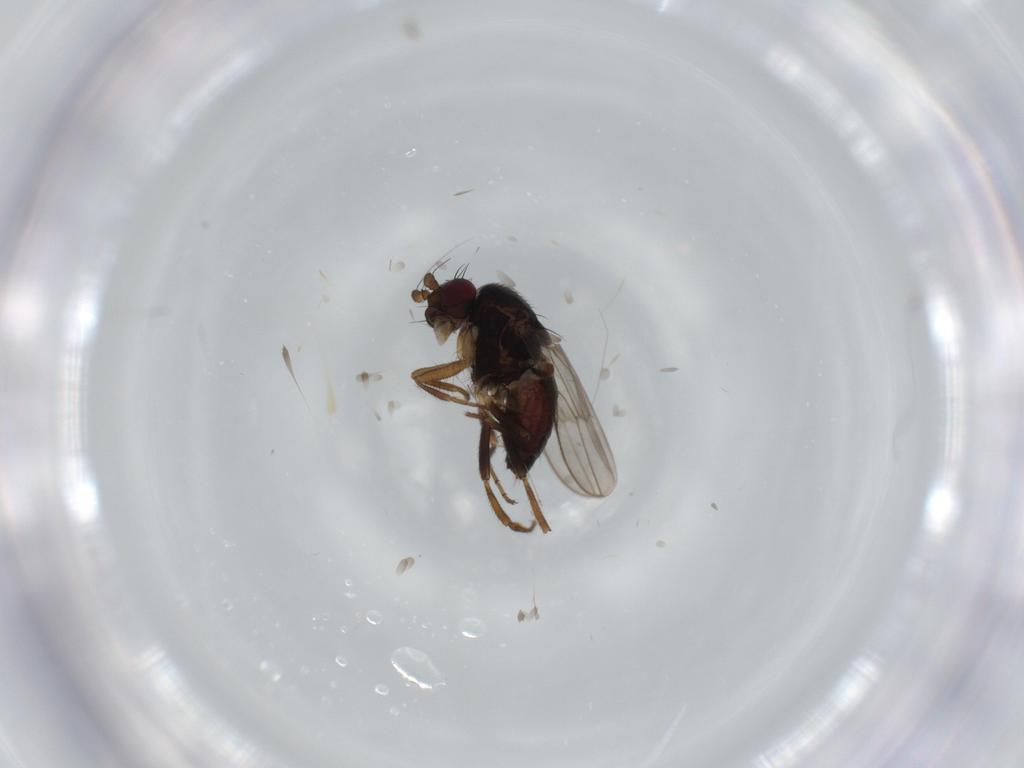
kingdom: Animalia
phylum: Arthropoda
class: Insecta
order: Diptera
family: Sphaeroceridae
